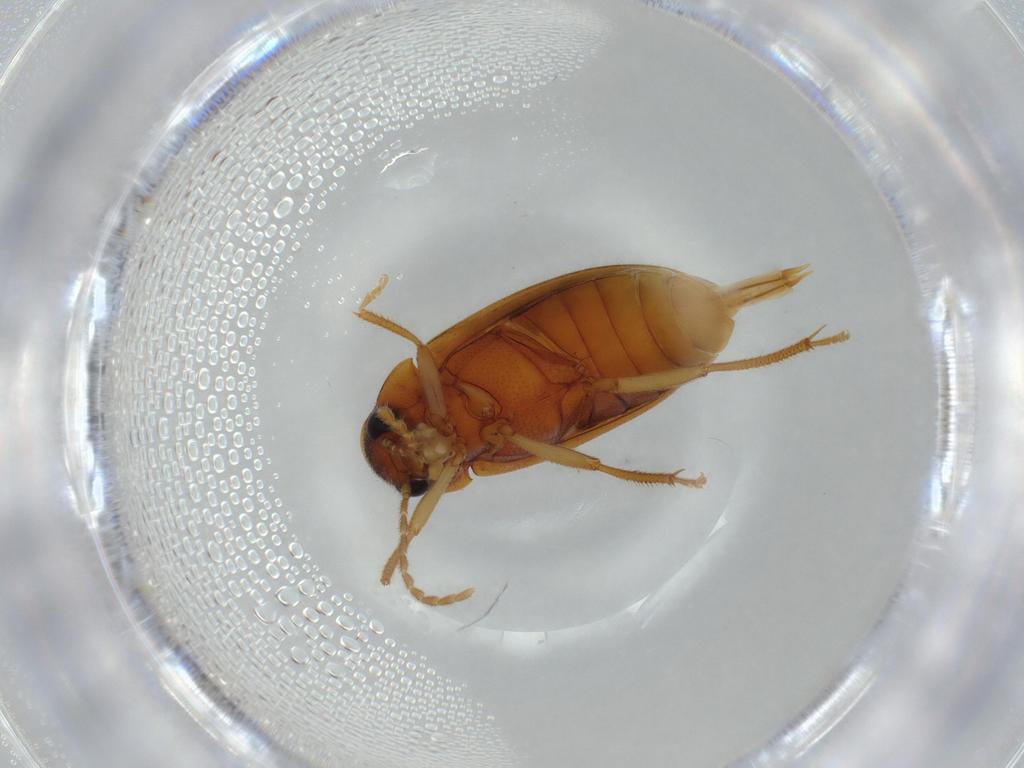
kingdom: Animalia
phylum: Arthropoda
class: Insecta
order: Coleoptera
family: Ptilodactylidae
